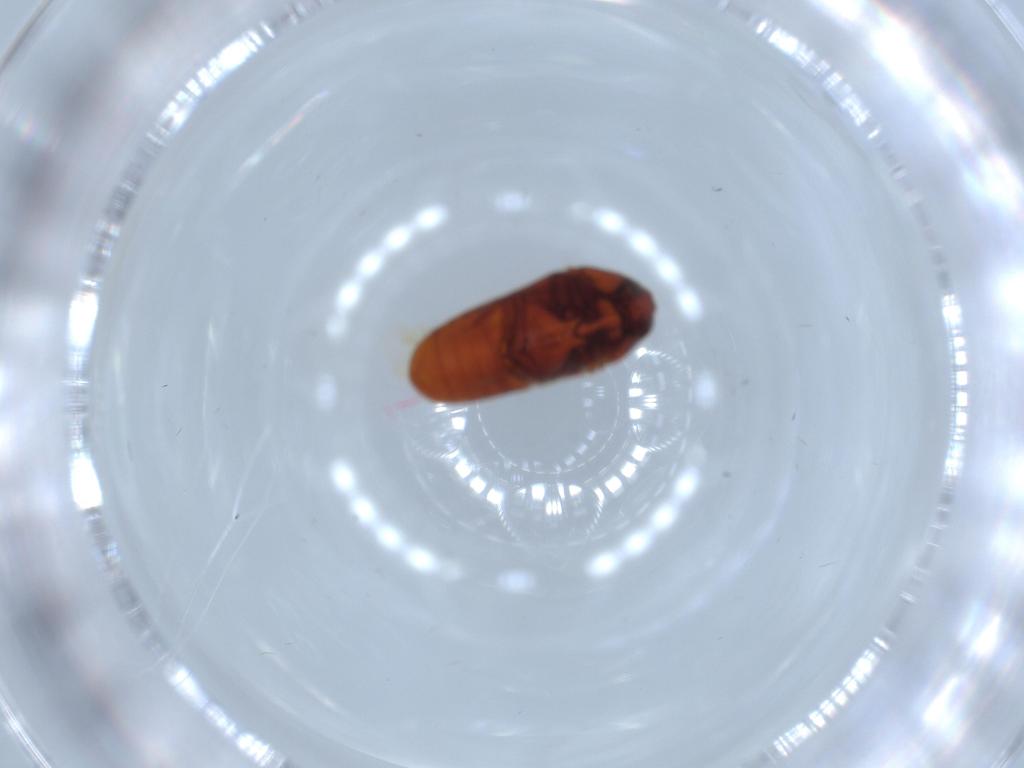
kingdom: Animalia
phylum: Arthropoda
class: Insecta
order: Coleoptera
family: Throscidae
